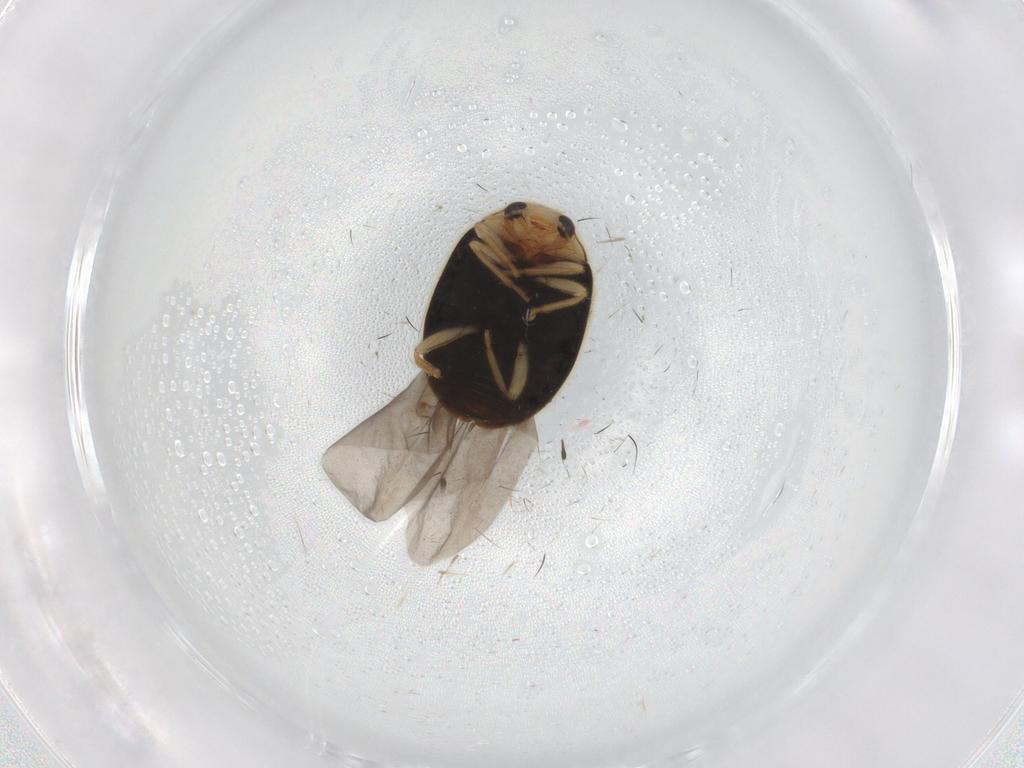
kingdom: Animalia
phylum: Arthropoda
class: Insecta
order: Coleoptera
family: Coccinellidae
